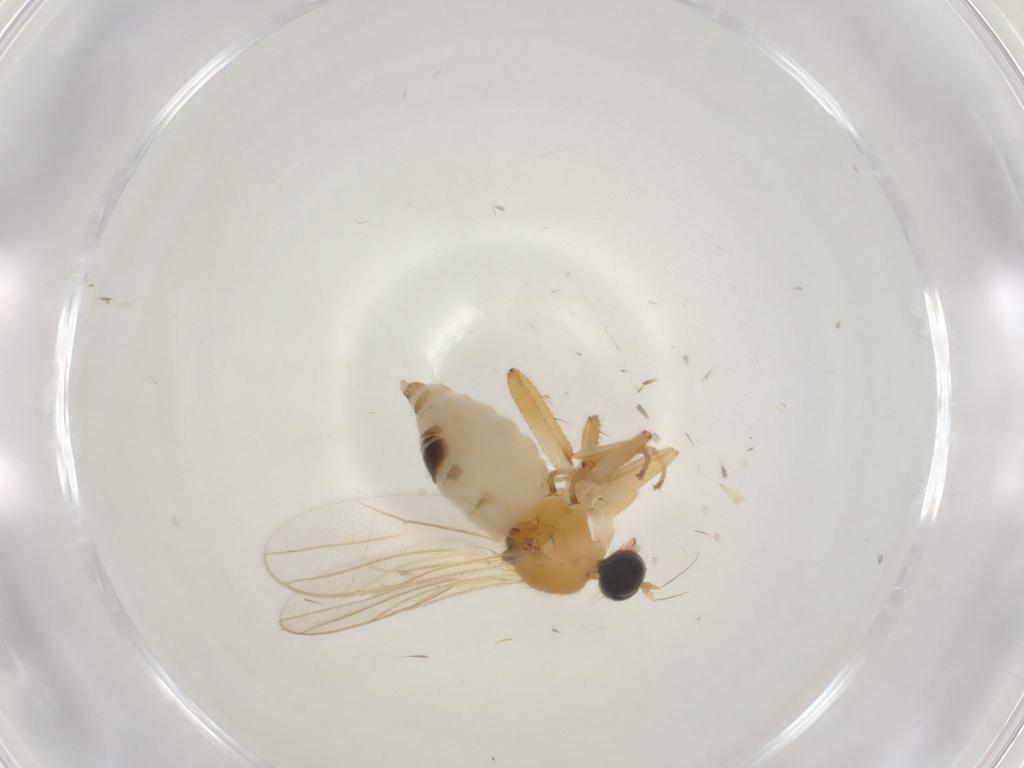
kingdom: Animalia
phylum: Arthropoda
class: Insecta
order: Diptera
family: Hybotidae
